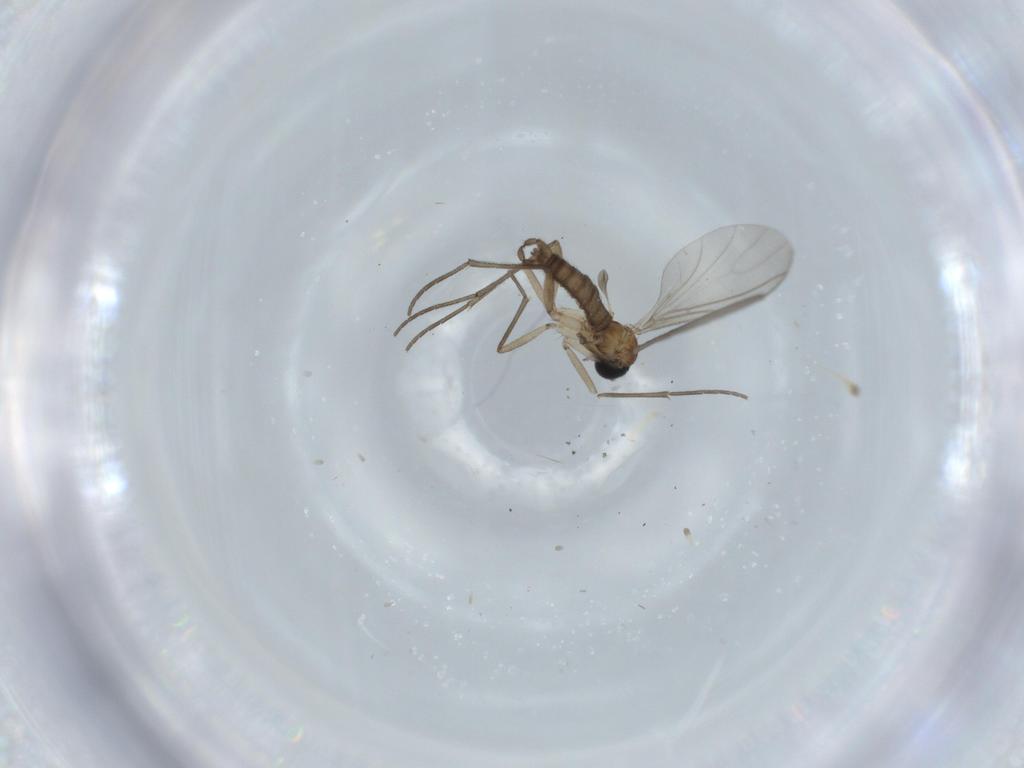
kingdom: Animalia
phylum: Arthropoda
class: Insecta
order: Diptera
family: Sciaridae
